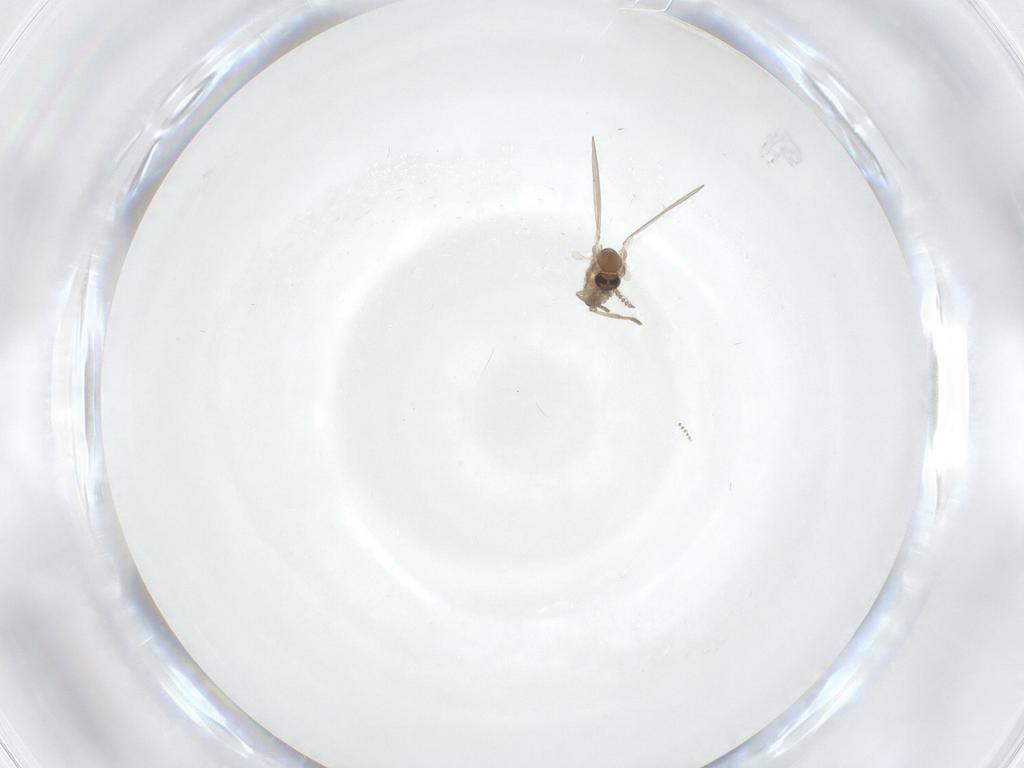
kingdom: Animalia
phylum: Arthropoda
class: Insecta
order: Diptera
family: Psychodidae
